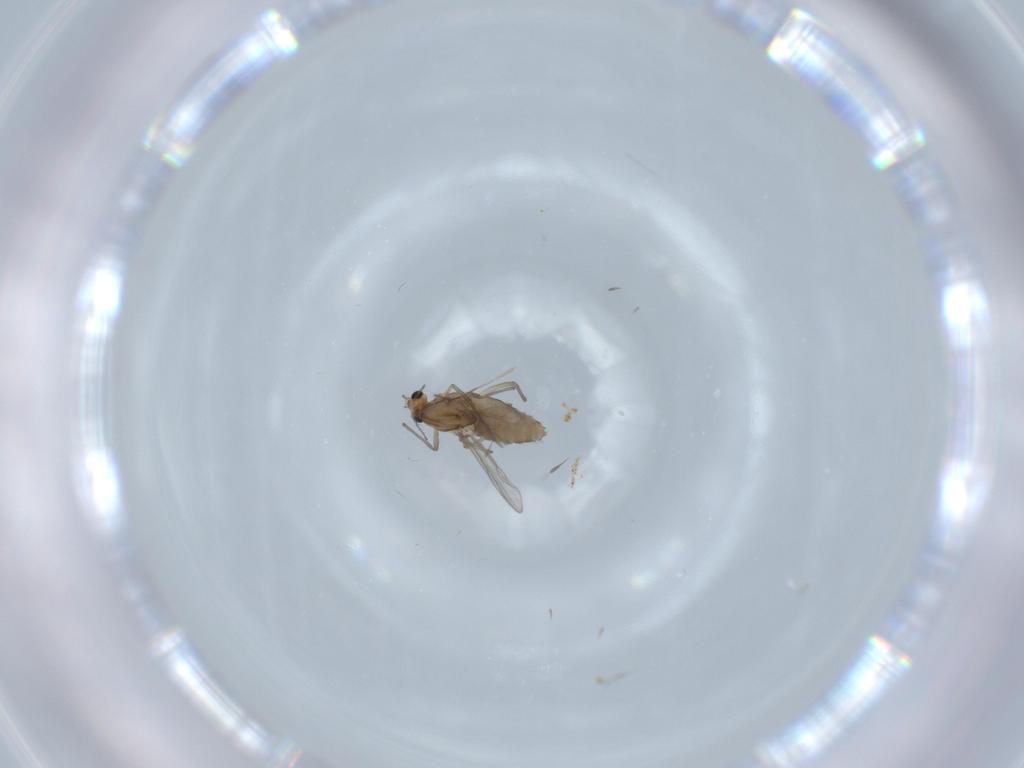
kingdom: Animalia
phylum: Arthropoda
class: Insecta
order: Diptera
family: Chironomidae
